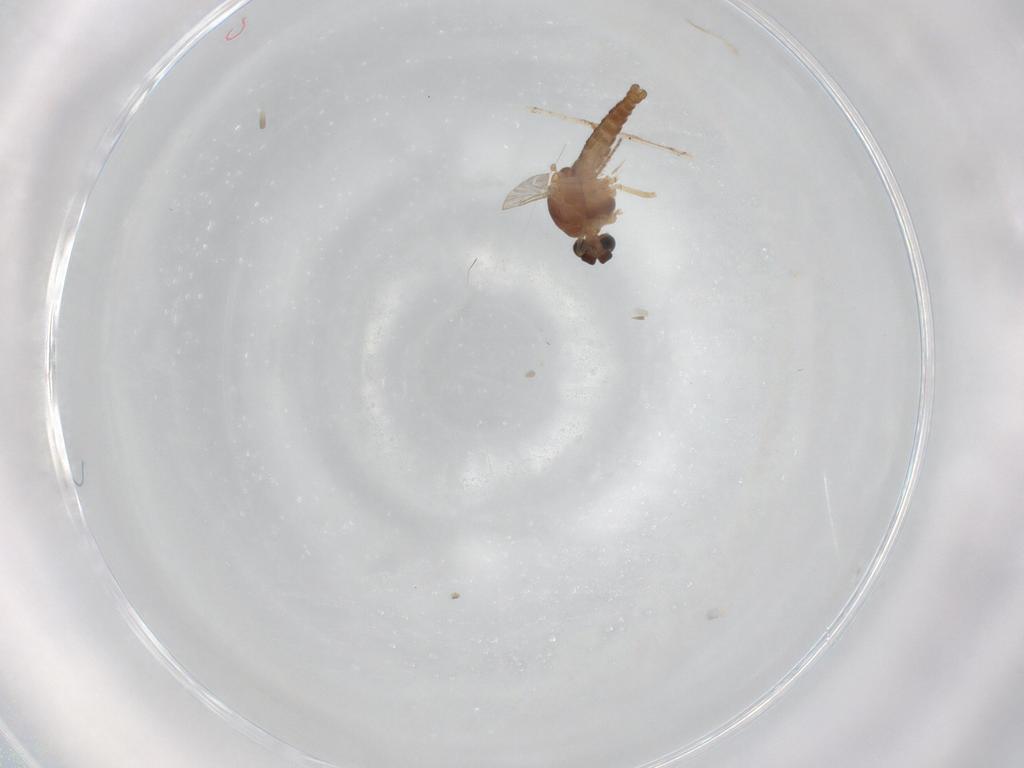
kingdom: Animalia
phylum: Arthropoda
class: Insecta
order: Diptera
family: Ceratopogonidae
